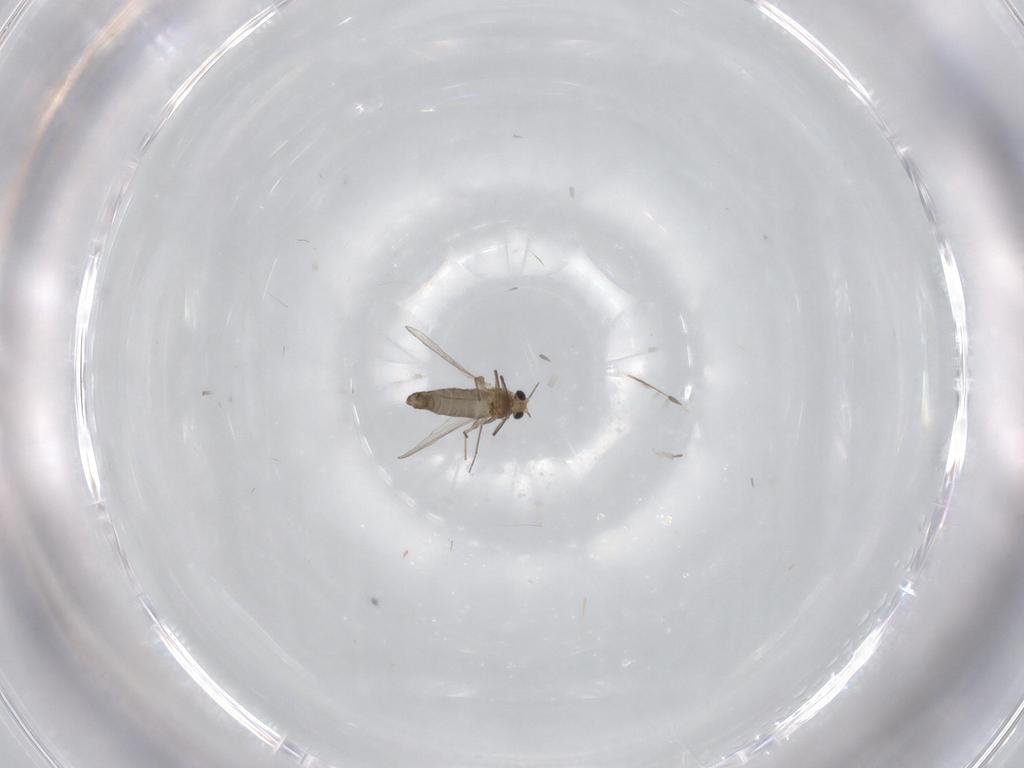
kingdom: Animalia
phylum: Arthropoda
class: Insecta
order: Diptera
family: Chironomidae
